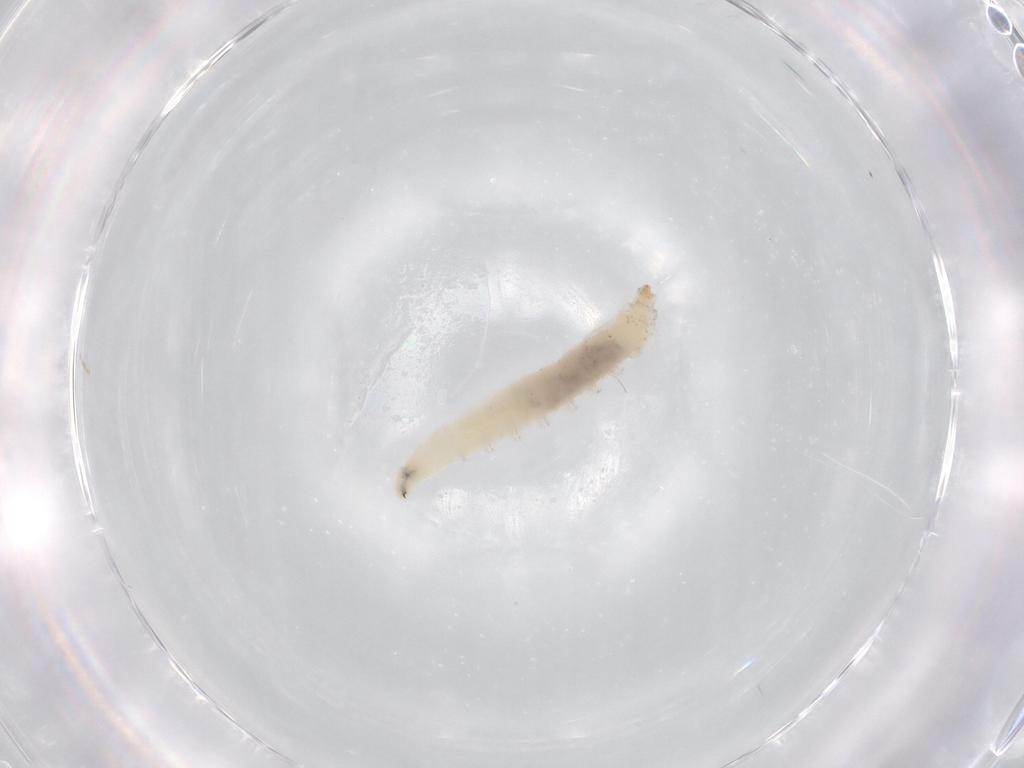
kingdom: Animalia
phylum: Arthropoda
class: Insecta
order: Diptera
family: Drosophilidae
